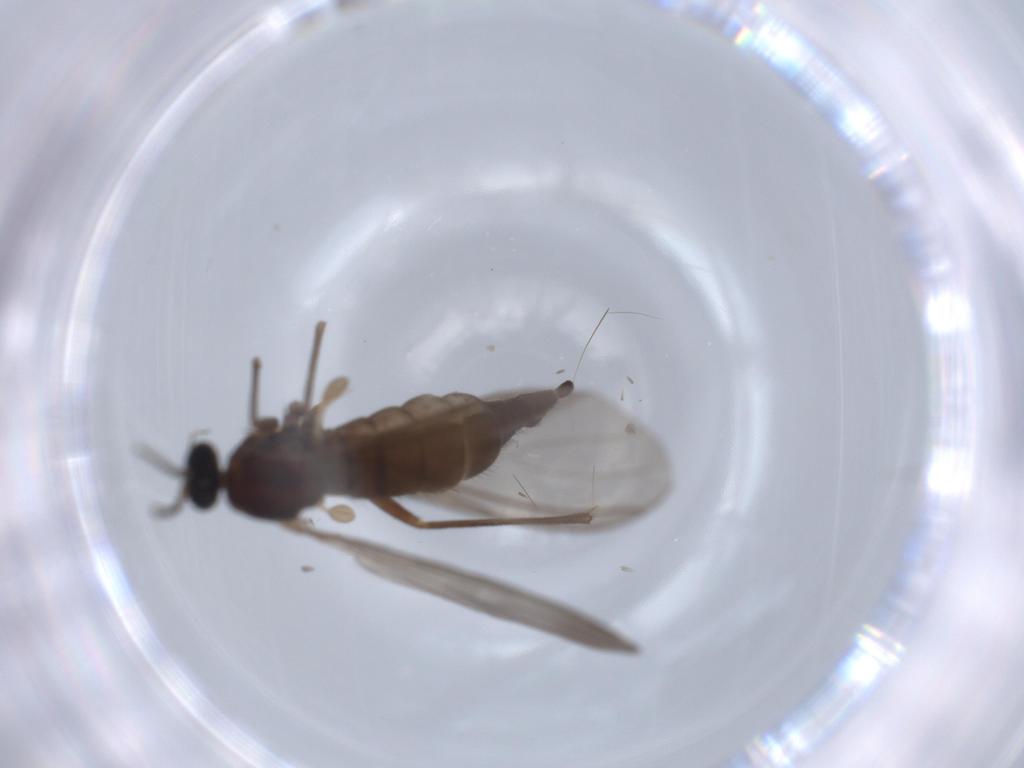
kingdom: Animalia
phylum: Arthropoda
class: Insecta
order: Diptera
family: Sciaridae
